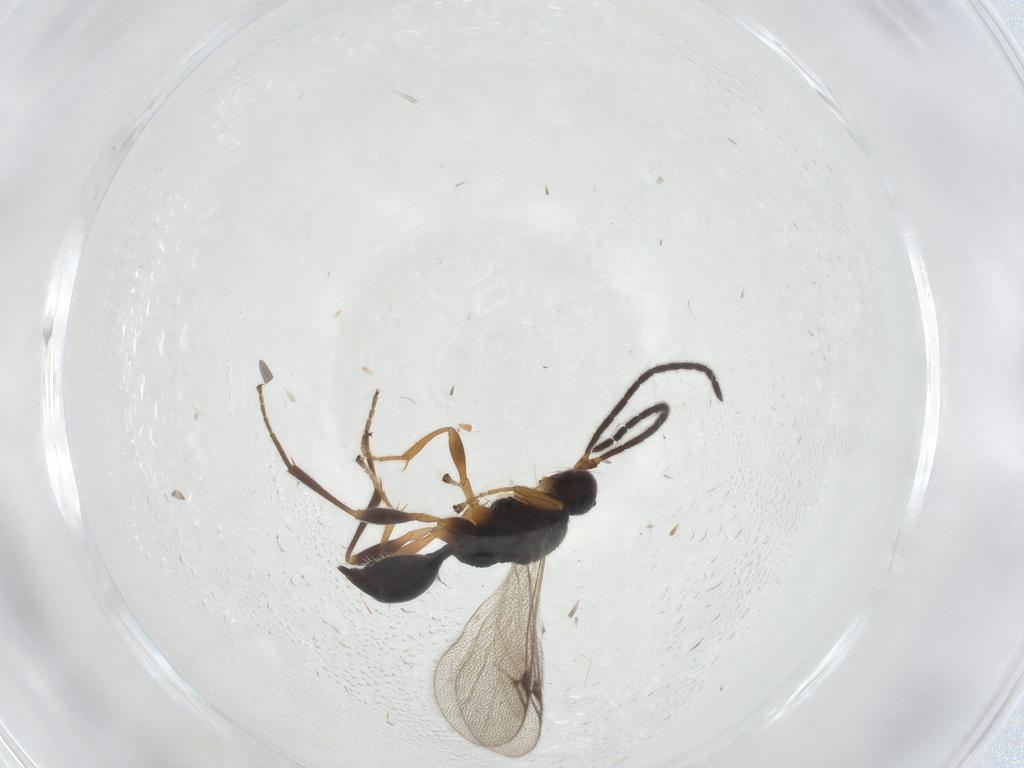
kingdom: Animalia
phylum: Arthropoda
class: Insecta
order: Hymenoptera
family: Proctotrupidae
